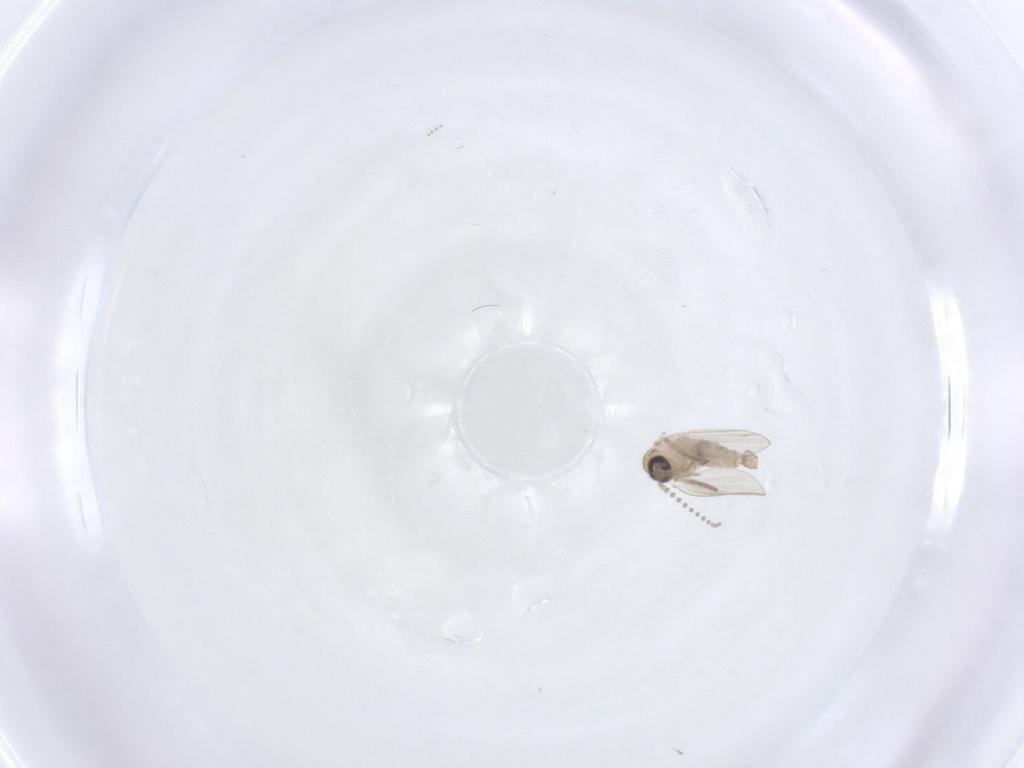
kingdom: Animalia
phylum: Arthropoda
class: Insecta
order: Diptera
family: Psychodidae
